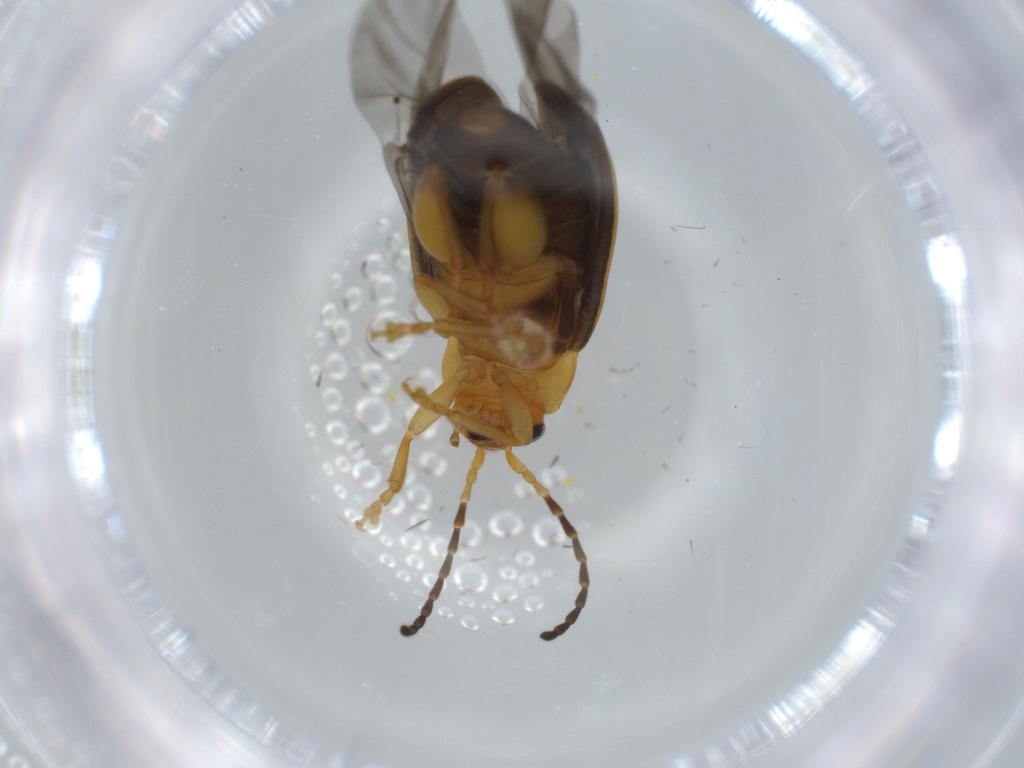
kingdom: Animalia
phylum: Arthropoda
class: Insecta
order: Coleoptera
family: Chrysomelidae
